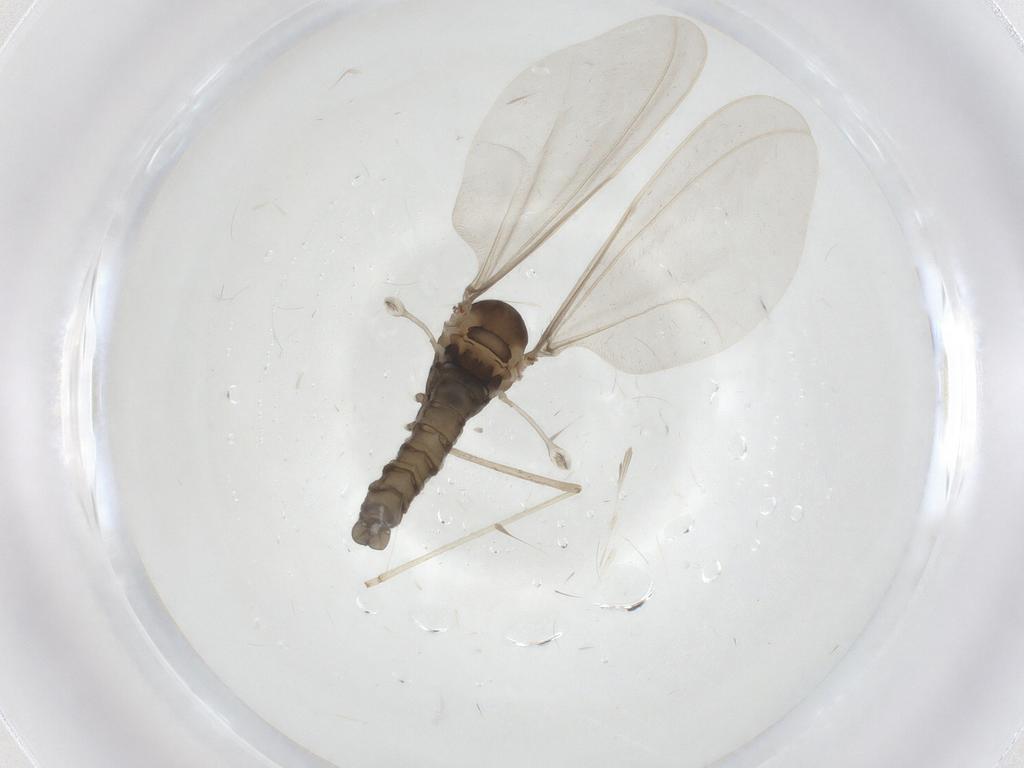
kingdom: Animalia
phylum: Arthropoda
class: Insecta
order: Diptera
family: Cecidomyiidae
